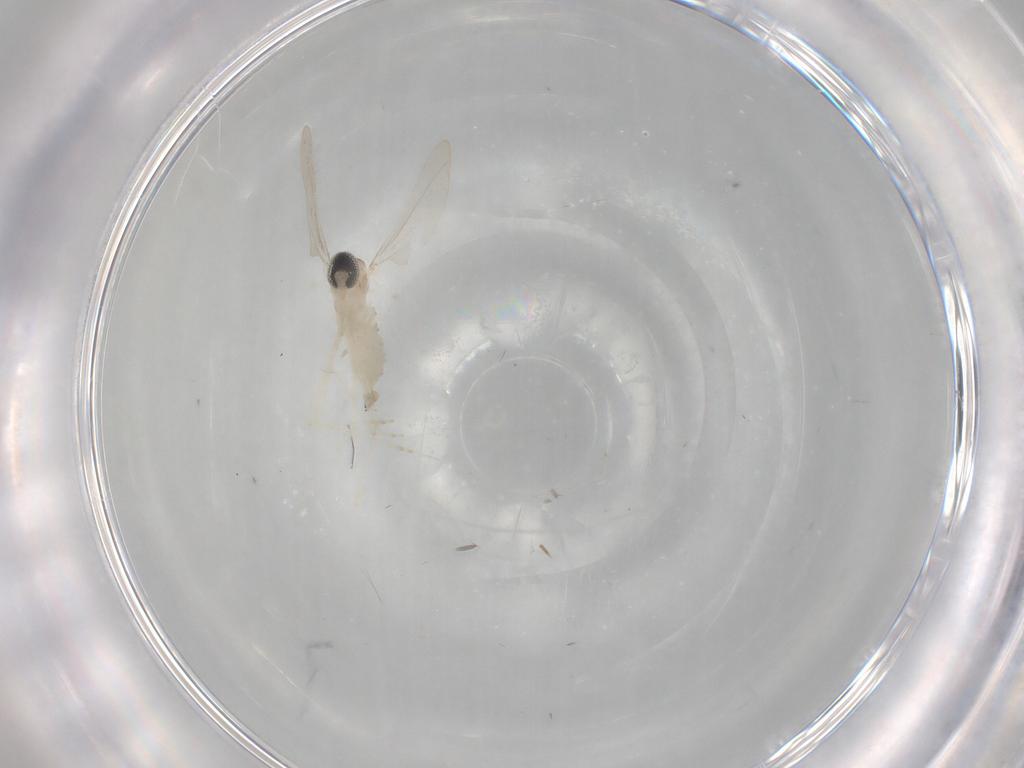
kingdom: Animalia
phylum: Arthropoda
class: Insecta
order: Diptera
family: Cecidomyiidae
